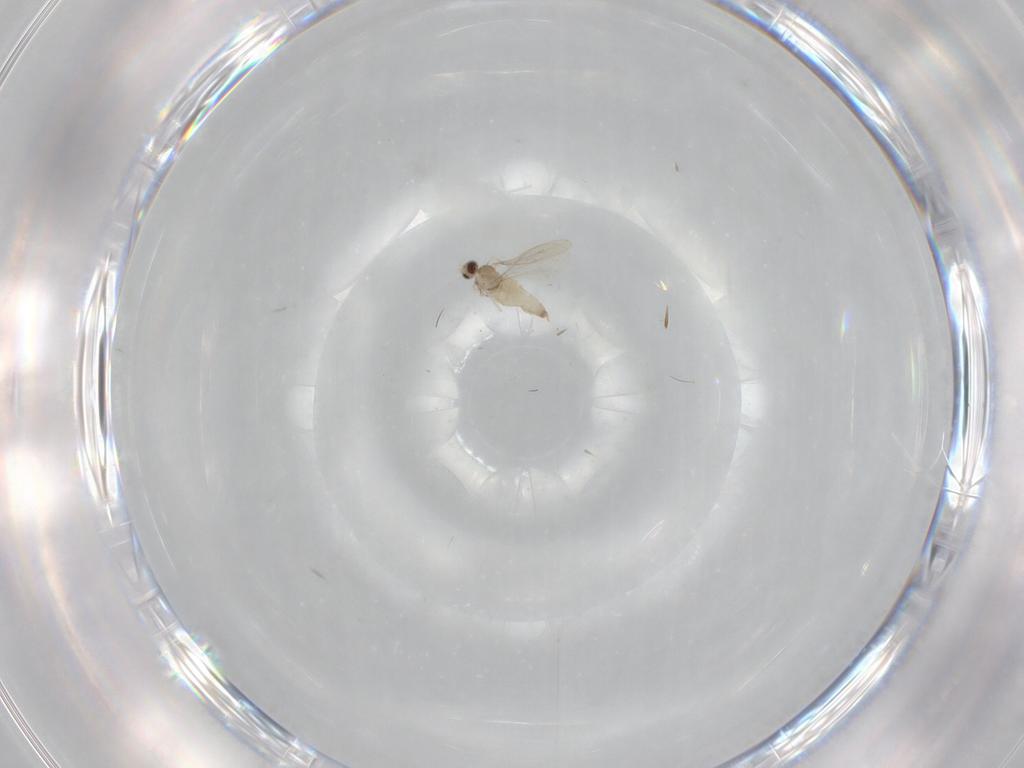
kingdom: Animalia
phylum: Arthropoda
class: Insecta
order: Diptera
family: Cecidomyiidae
